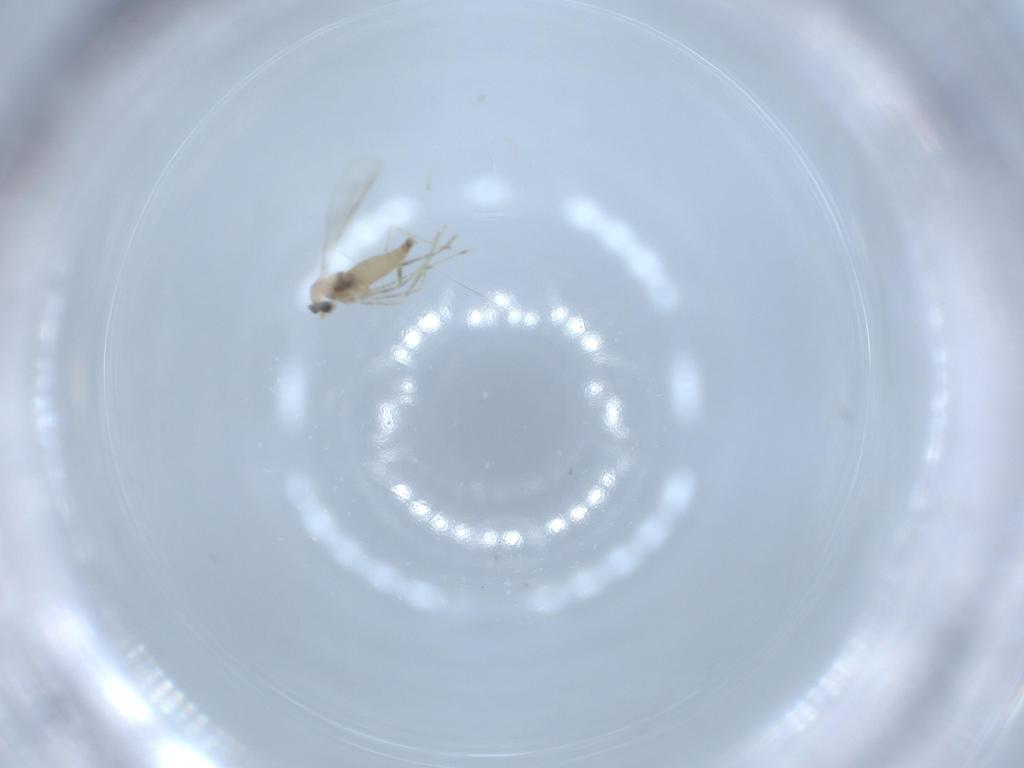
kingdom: Animalia
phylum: Arthropoda
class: Insecta
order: Diptera
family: Cecidomyiidae
